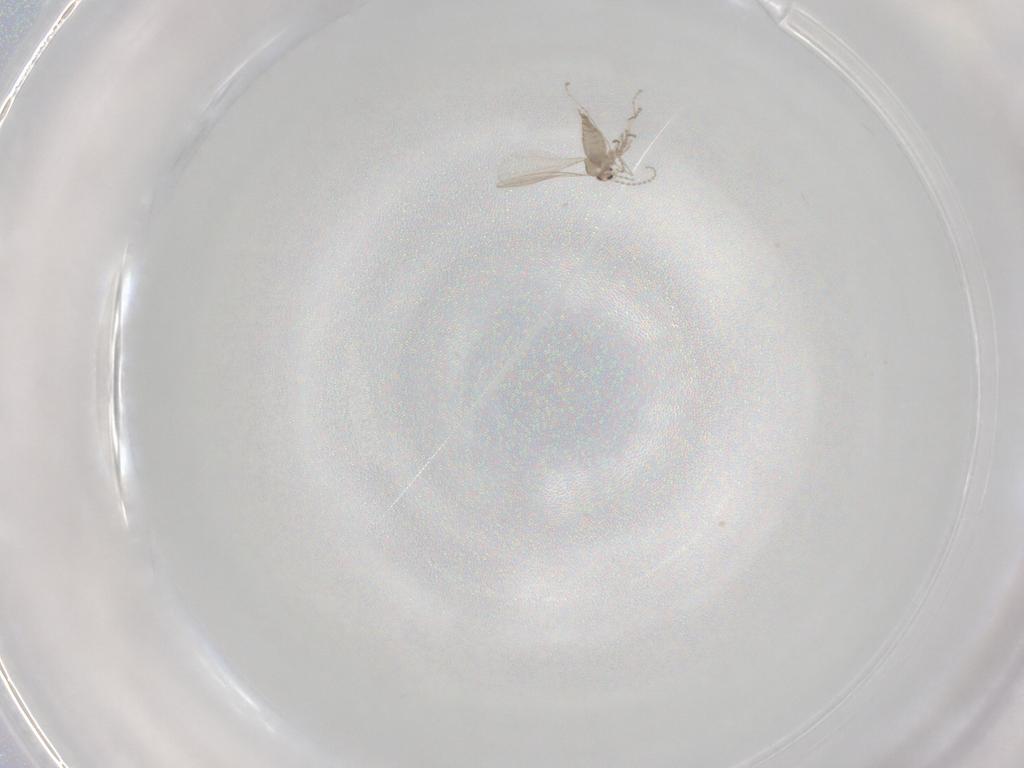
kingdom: Animalia
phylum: Arthropoda
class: Insecta
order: Diptera
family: Cecidomyiidae
